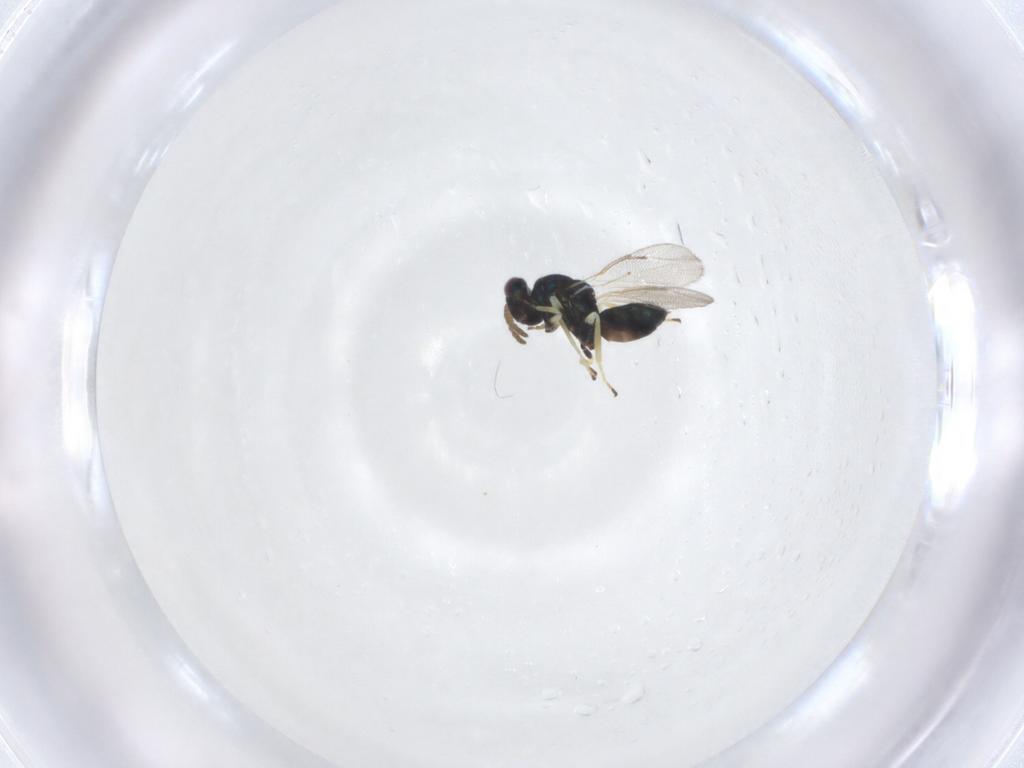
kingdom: Animalia
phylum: Arthropoda
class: Insecta
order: Hymenoptera
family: Eulophidae
